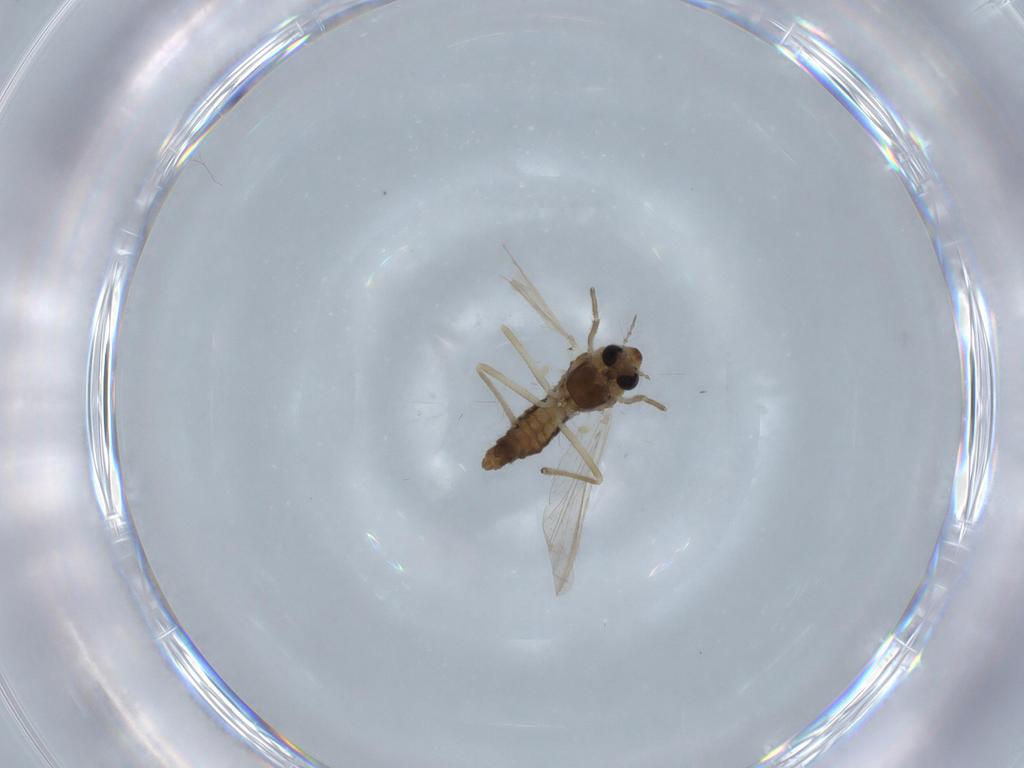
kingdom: Animalia
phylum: Arthropoda
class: Insecta
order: Diptera
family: Chironomidae
